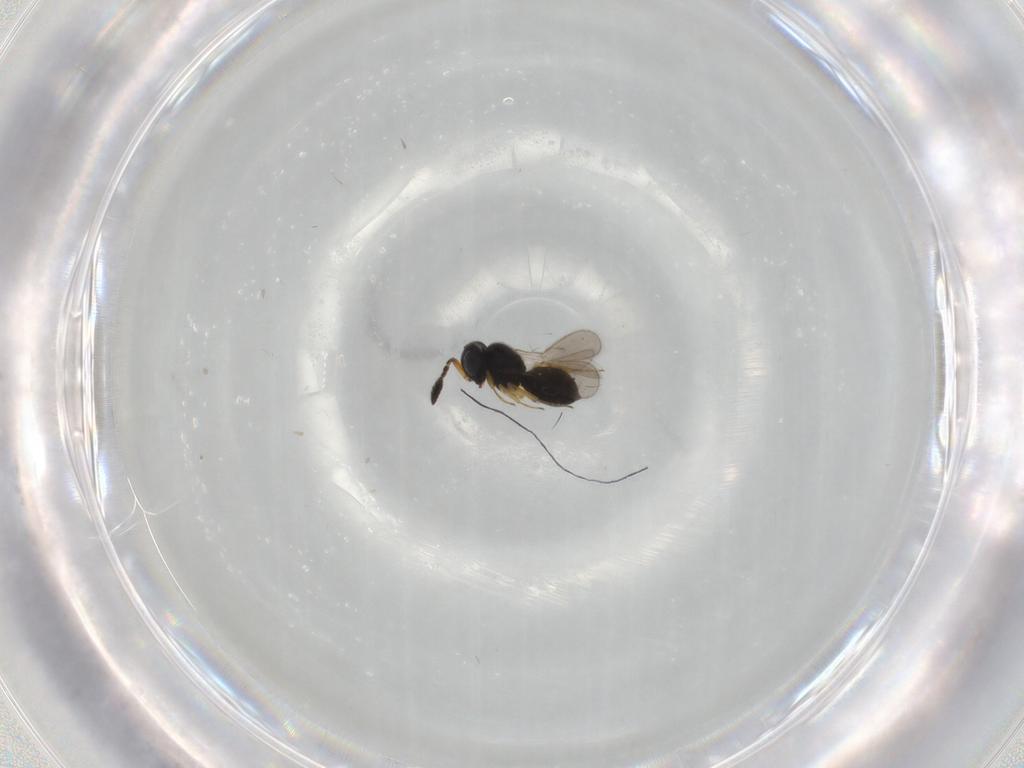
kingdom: Animalia
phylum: Arthropoda
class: Insecta
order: Hymenoptera
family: Scelionidae
